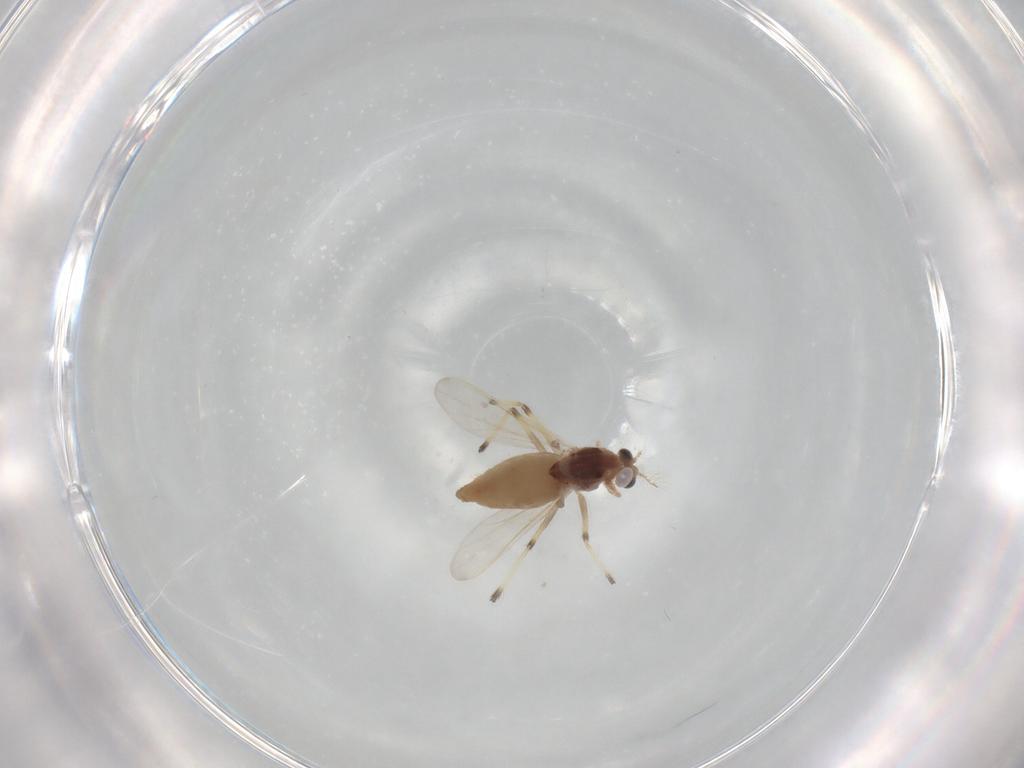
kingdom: Animalia
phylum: Arthropoda
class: Insecta
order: Diptera
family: Chironomidae
